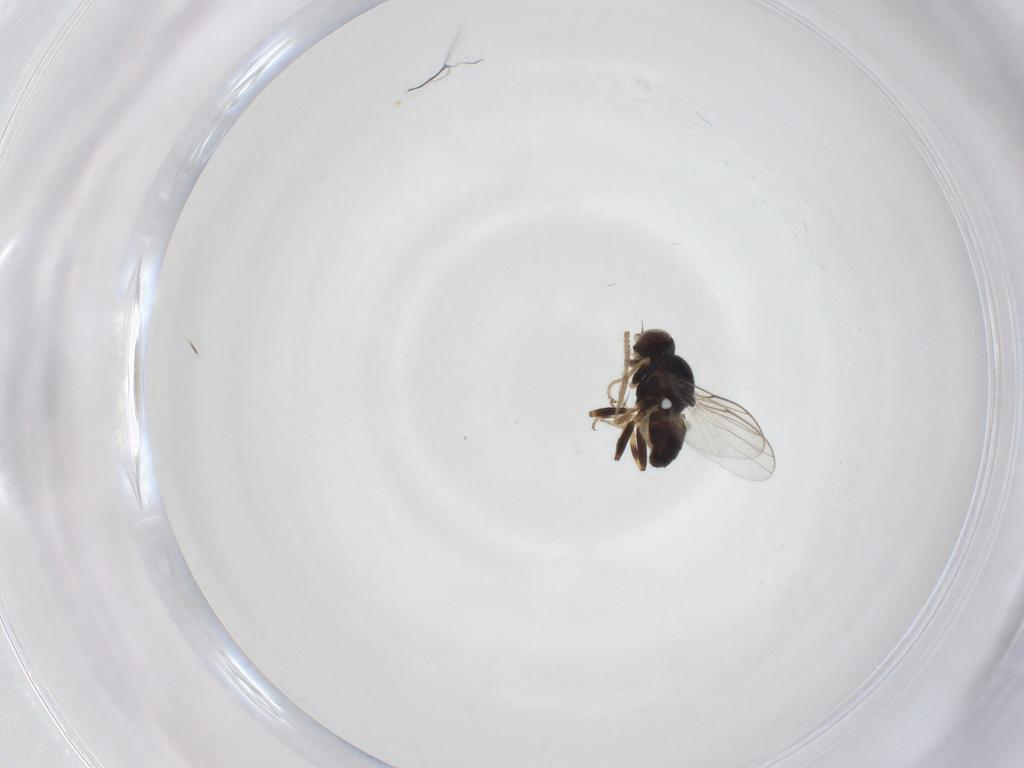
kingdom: Animalia
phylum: Arthropoda
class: Insecta
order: Diptera
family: Chloropidae
